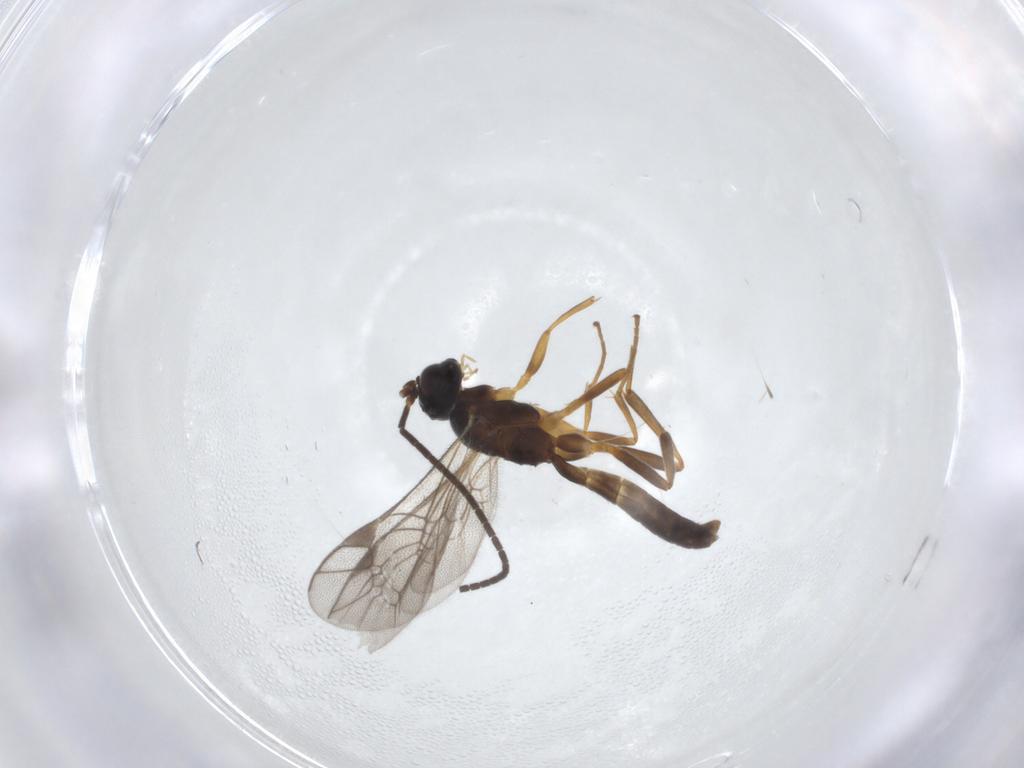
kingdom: Animalia
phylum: Arthropoda
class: Insecta
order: Hymenoptera
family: Ichneumonidae
